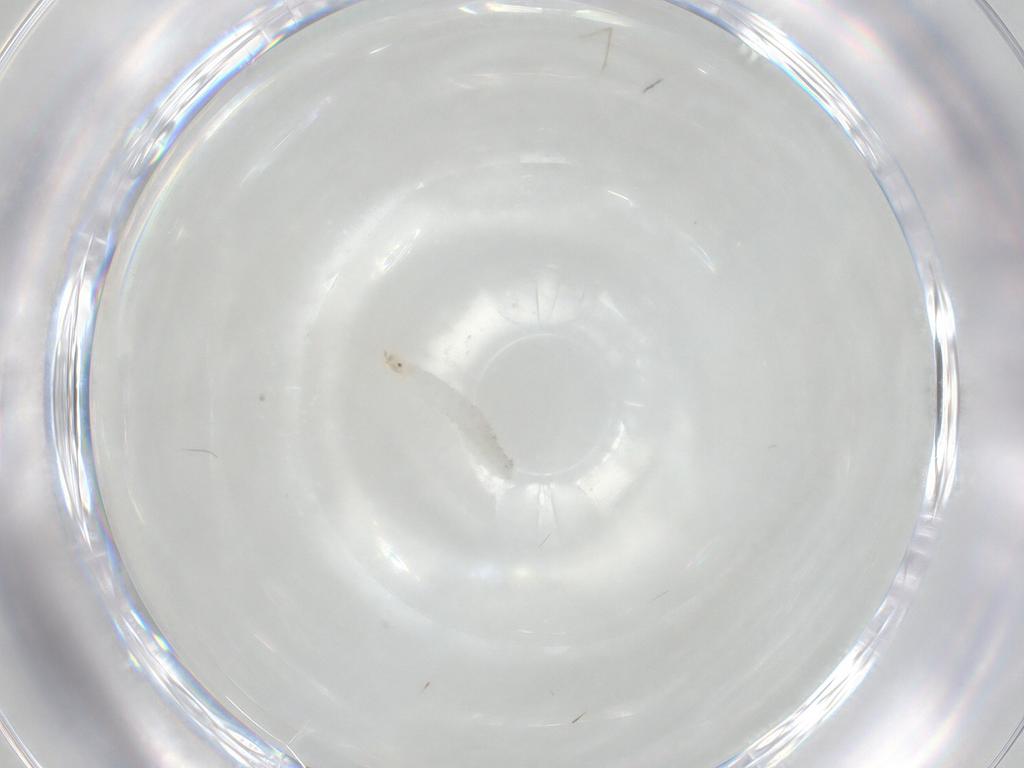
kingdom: Animalia
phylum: Arthropoda
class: Insecta
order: Diptera
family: Stratiomyidae
